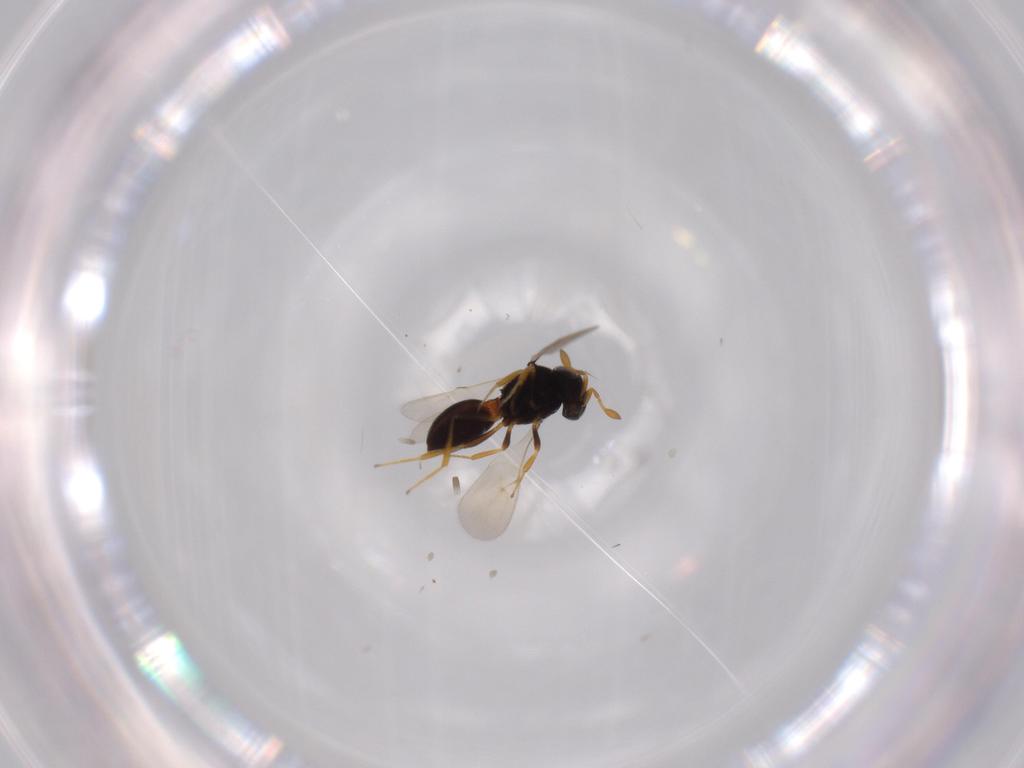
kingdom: Animalia
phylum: Arthropoda
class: Insecta
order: Hymenoptera
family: Scelionidae
